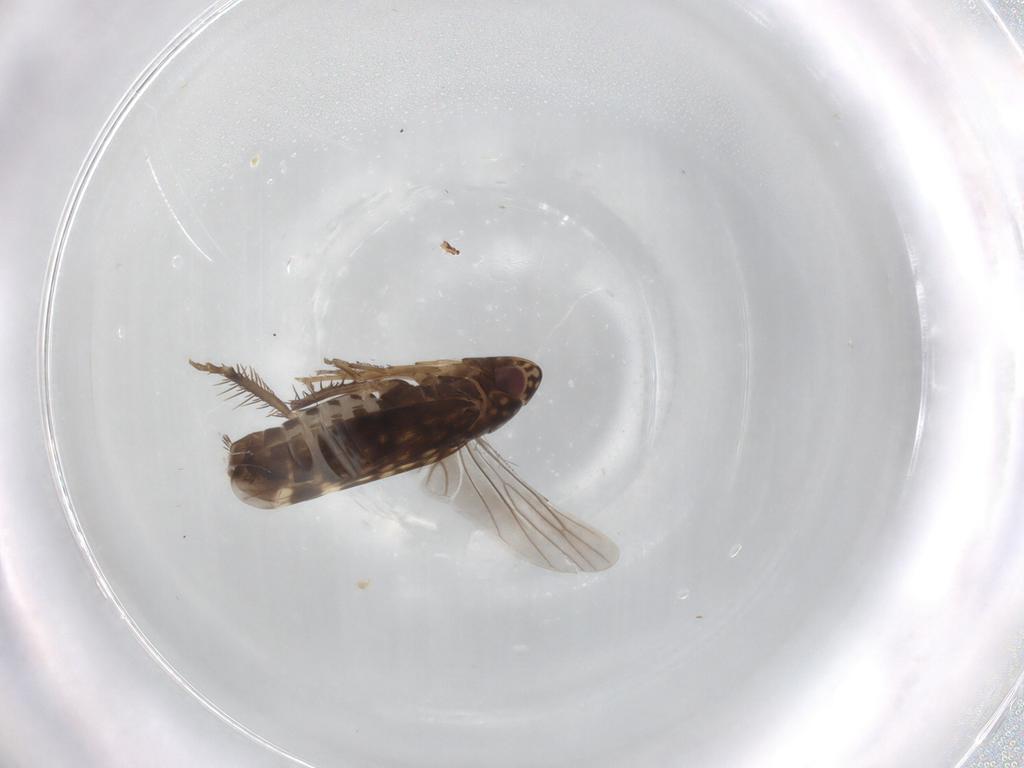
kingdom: Animalia
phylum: Arthropoda
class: Insecta
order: Hemiptera
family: Cicadellidae
